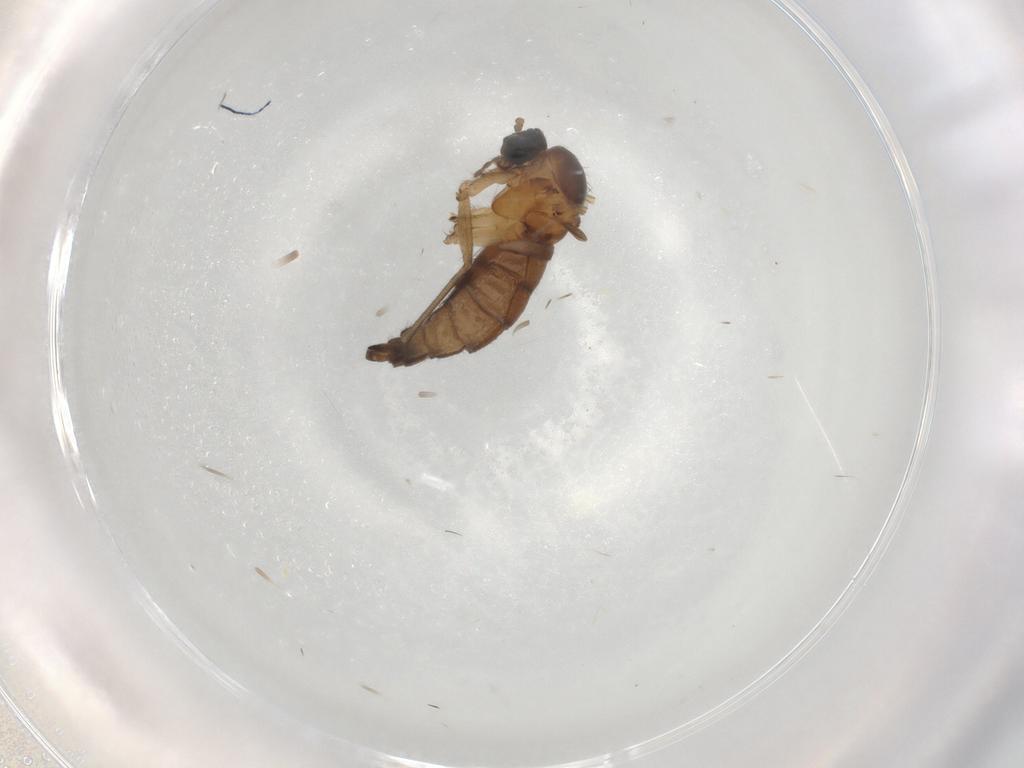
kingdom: Animalia
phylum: Arthropoda
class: Insecta
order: Diptera
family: Sciaridae
